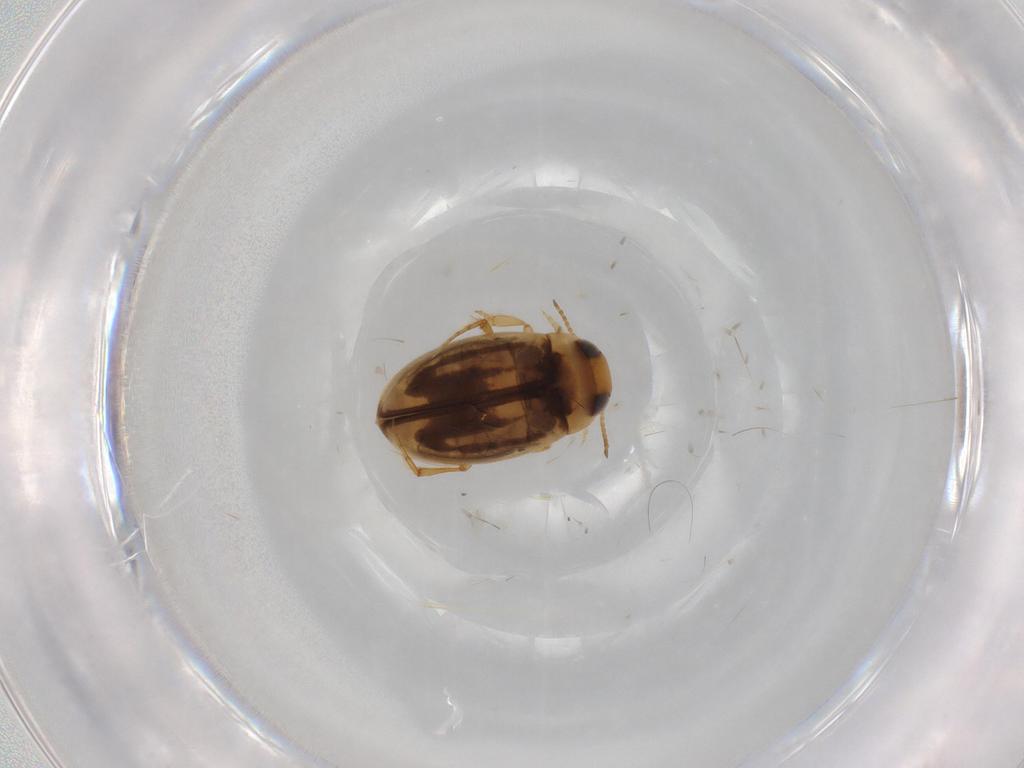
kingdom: Animalia
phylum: Arthropoda
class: Insecta
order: Coleoptera
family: Dytiscidae
